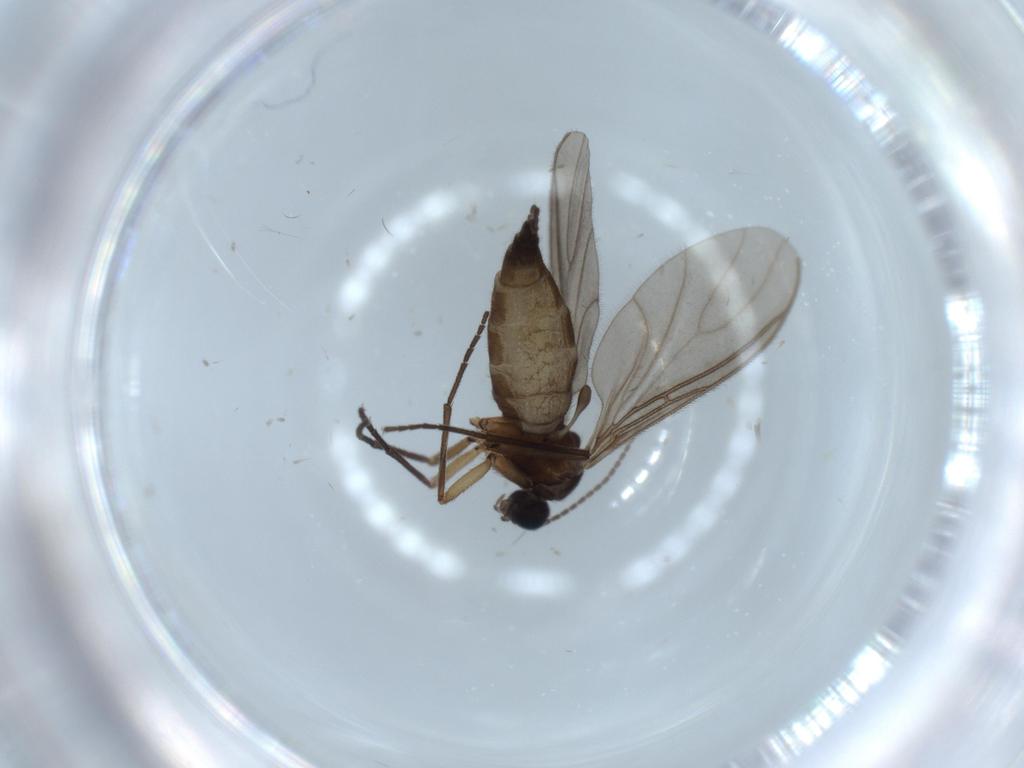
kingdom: Animalia
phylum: Arthropoda
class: Insecta
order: Diptera
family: Sciaridae
